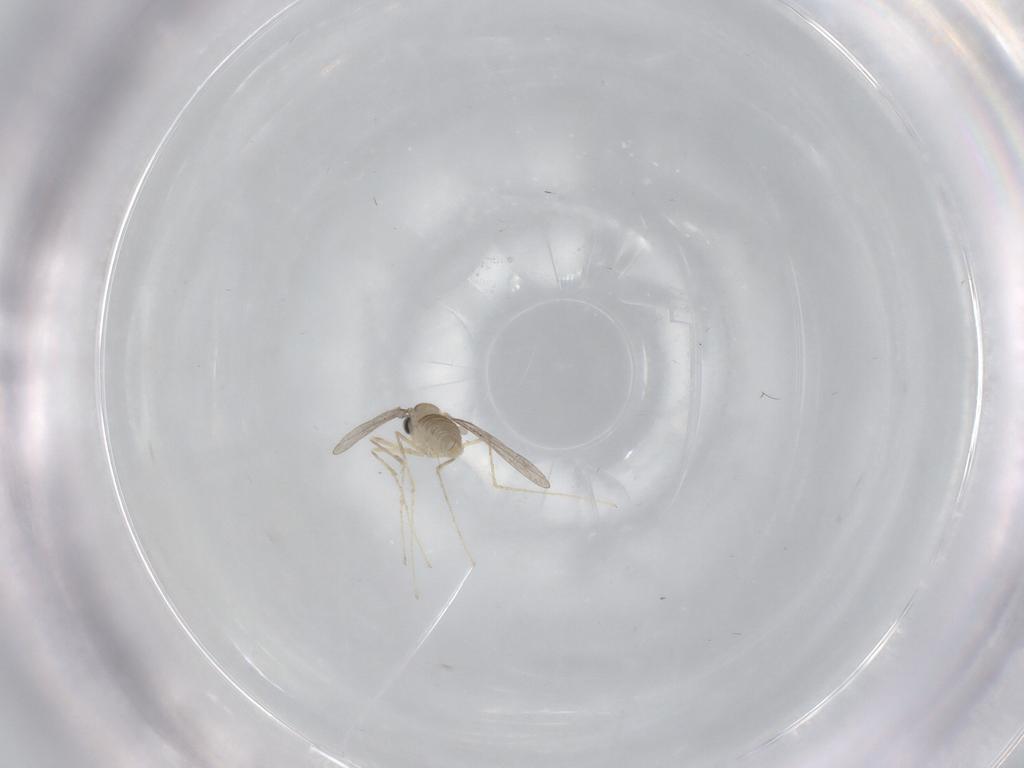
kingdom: Animalia
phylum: Arthropoda
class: Insecta
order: Diptera
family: Cecidomyiidae
